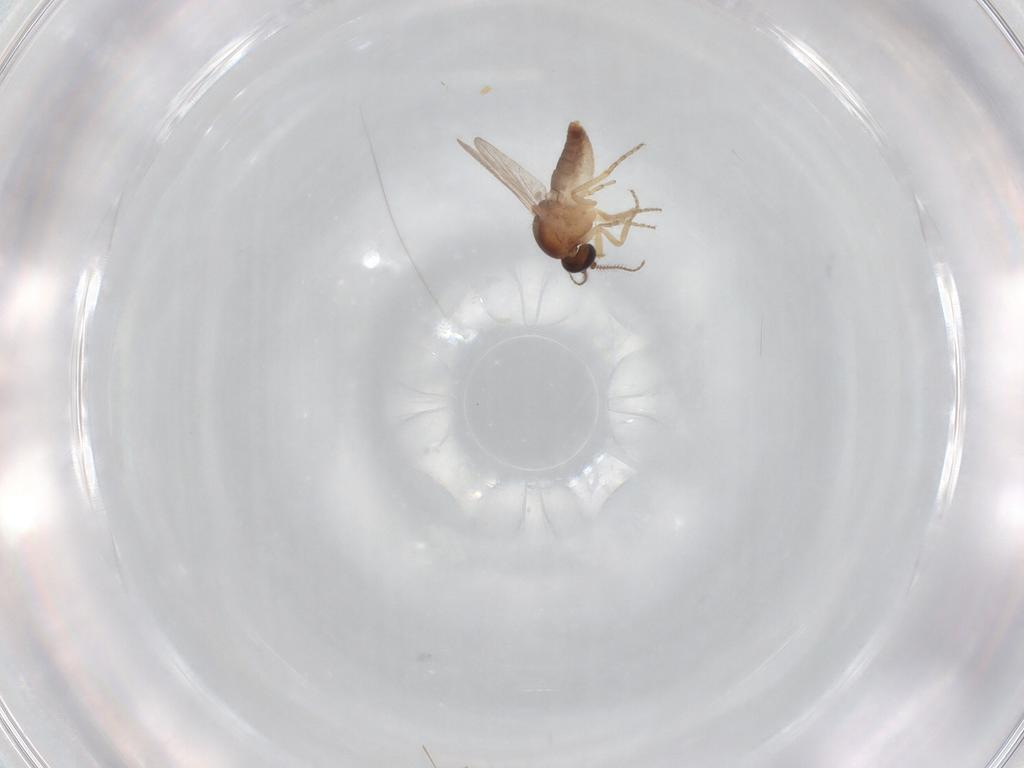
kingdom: Animalia
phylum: Arthropoda
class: Insecta
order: Diptera
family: Ceratopogonidae
